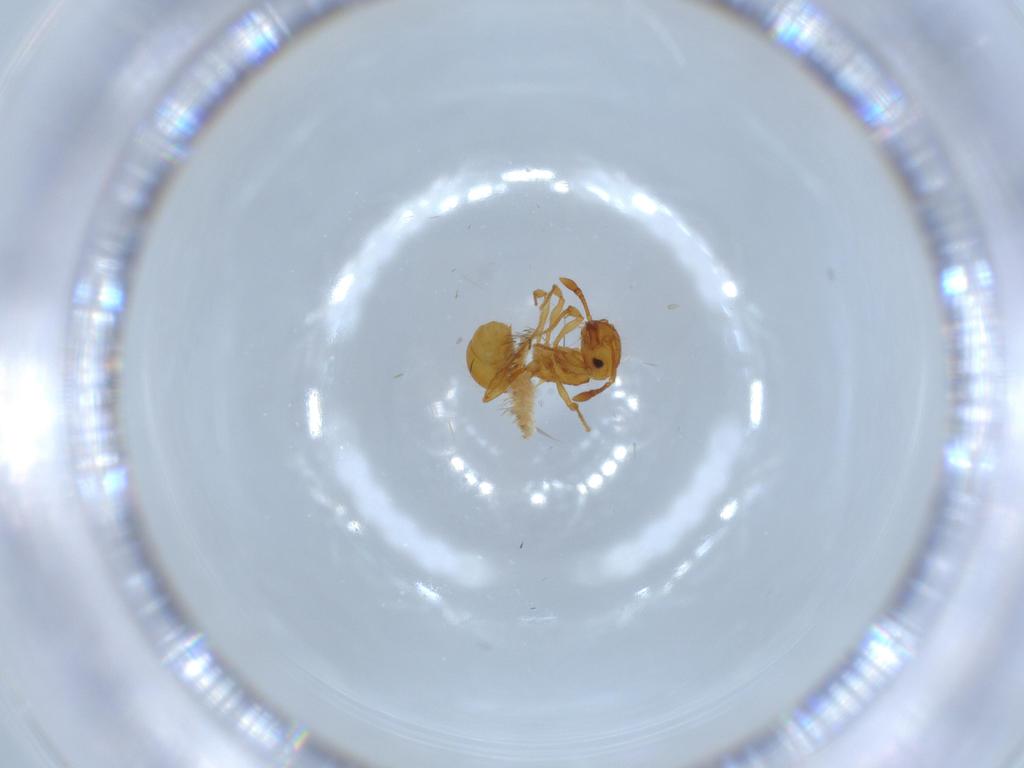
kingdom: Animalia
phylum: Arthropoda
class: Insecta
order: Hymenoptera
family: Formicidae
